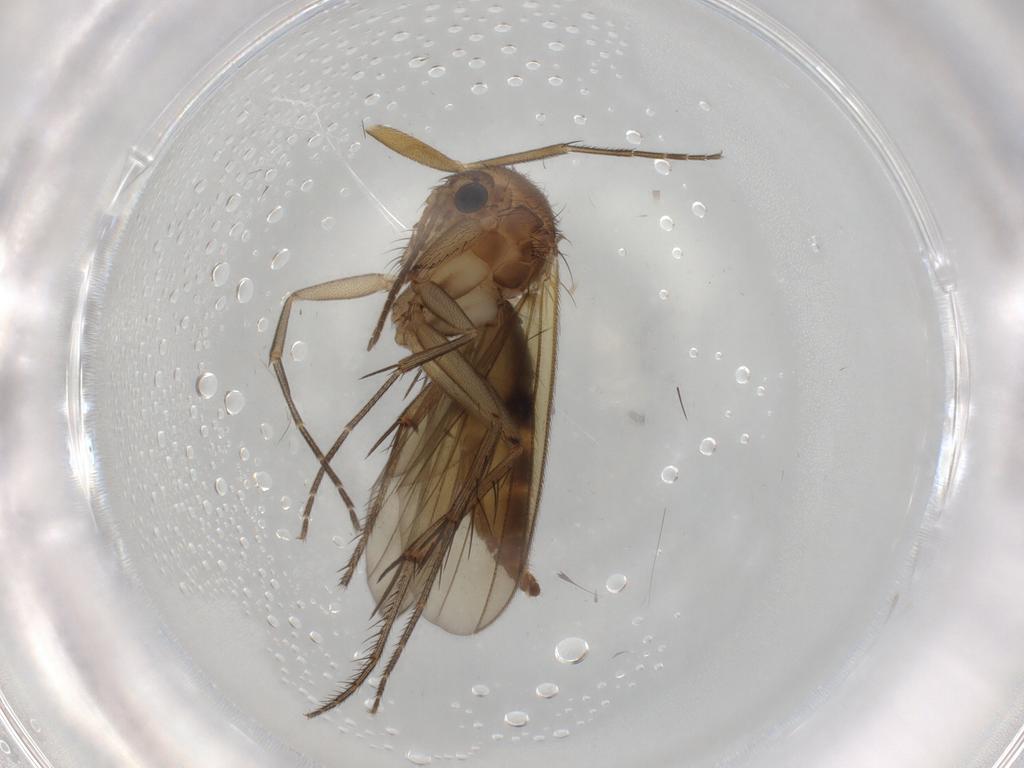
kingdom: Animalia
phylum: Arthropoda
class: Insecta
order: Diptera
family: Mycetophilidae
